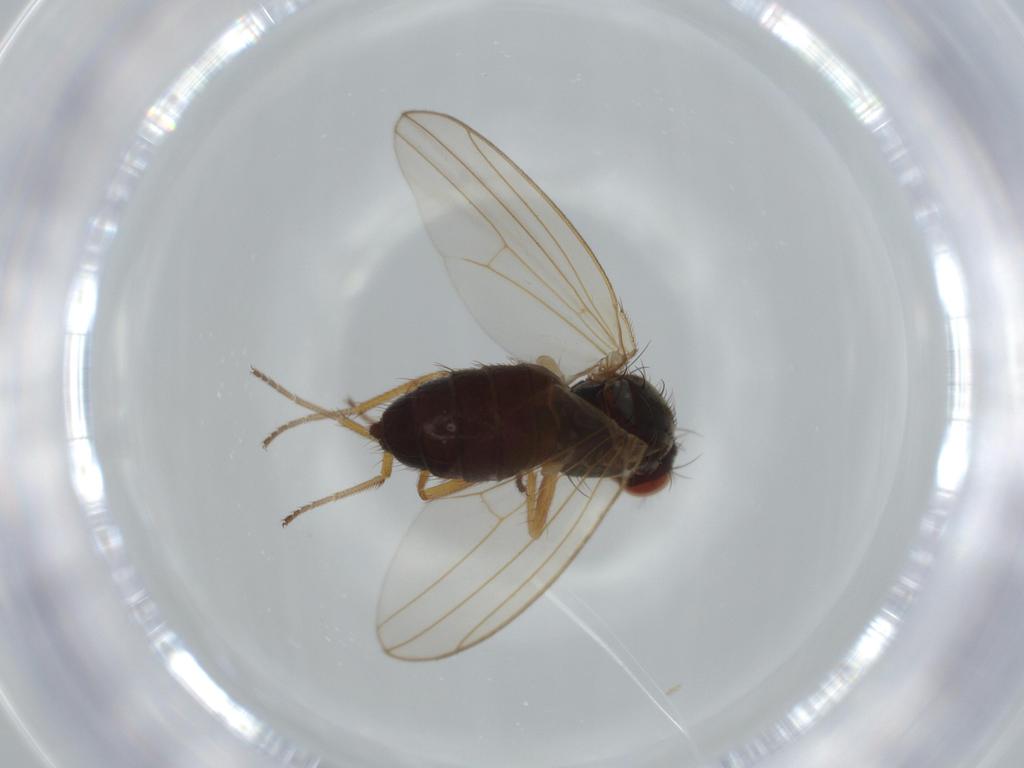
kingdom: Animalia
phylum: Arthropoda
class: Insecta
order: Diptera
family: Drosophilidae
